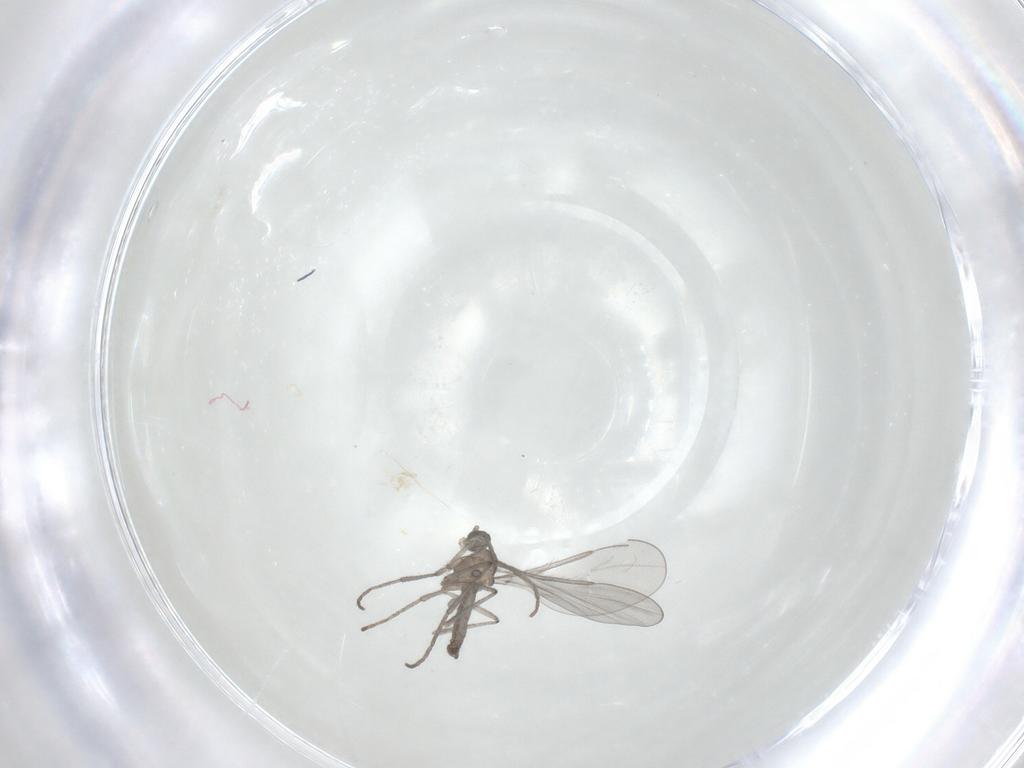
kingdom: Animalia
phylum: Arthropoda
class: Insecta
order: Diptera
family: Cecidomyiidae
